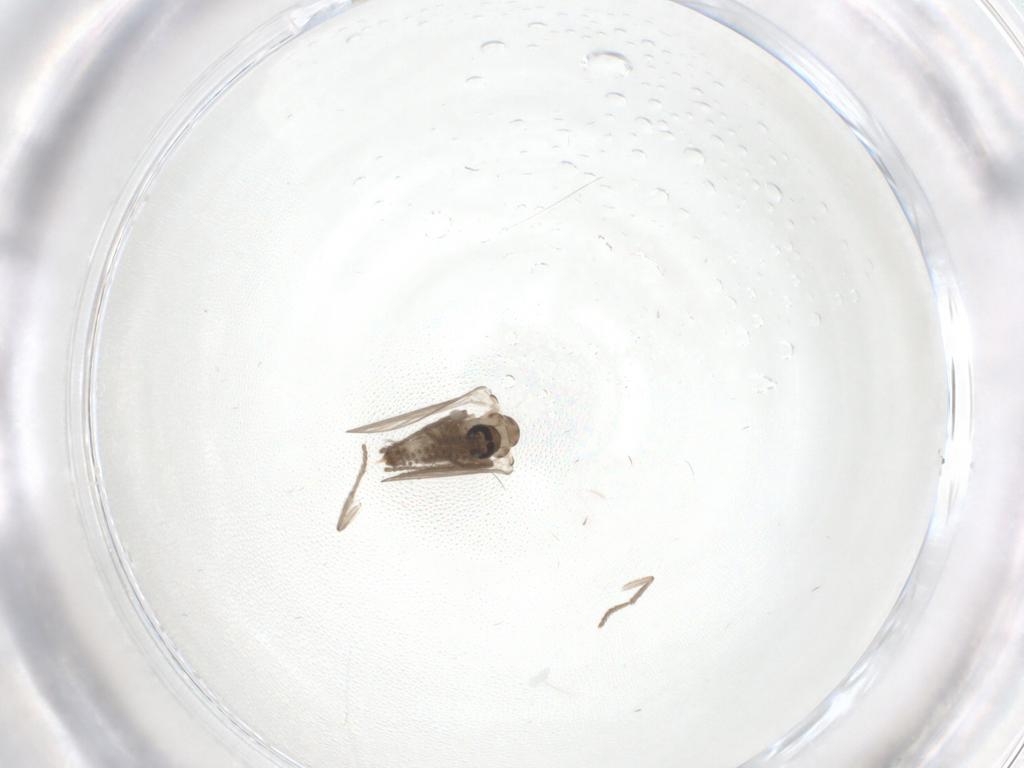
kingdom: Animalia
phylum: Arthropoda
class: Insecta
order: Diptera
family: Psychodidae
